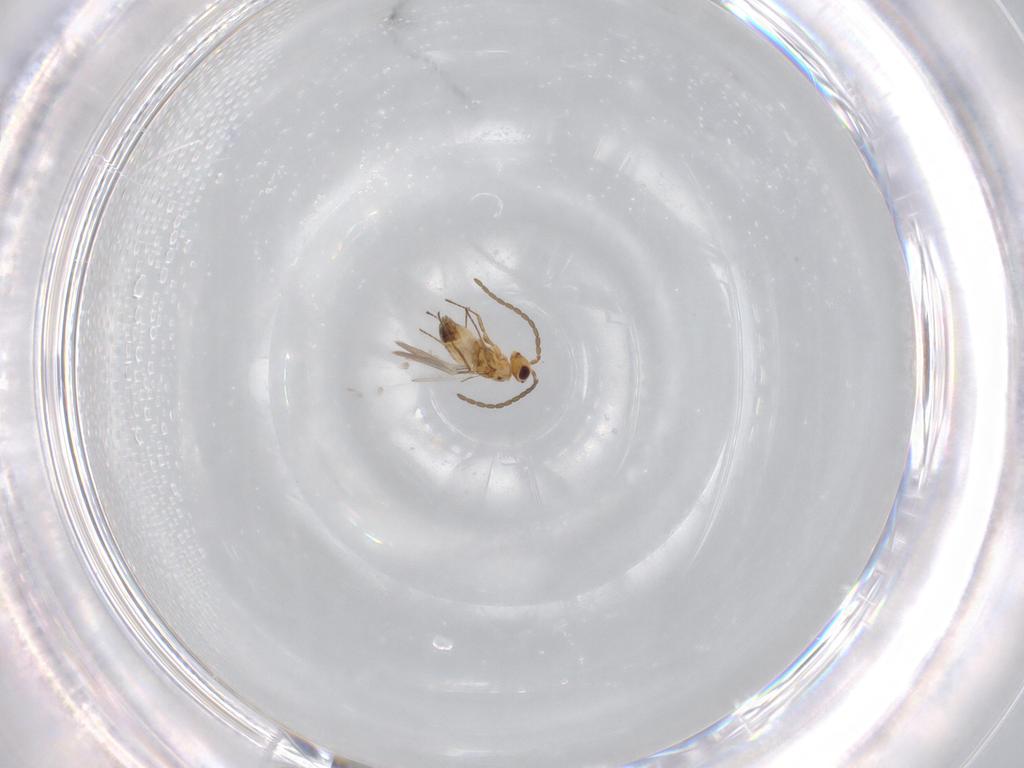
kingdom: Animalia
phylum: Arthropoda
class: Insecta
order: Hymenoptera
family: Mymaridae
